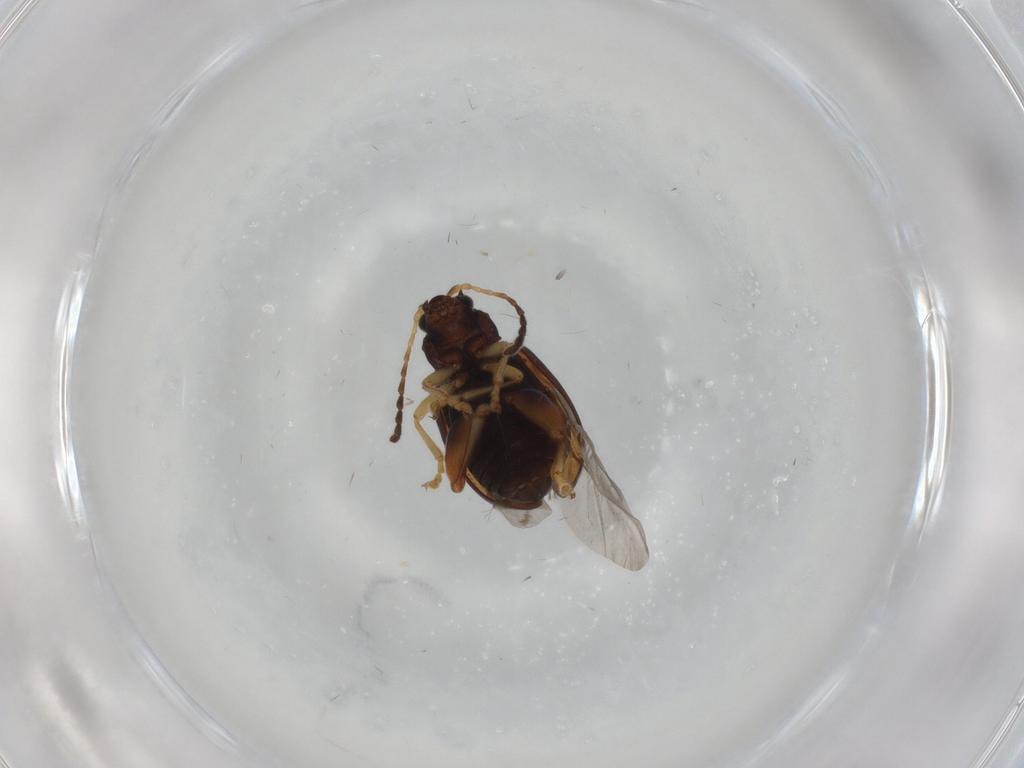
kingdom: Animalia
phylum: Arthropoda
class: Insecta
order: Coleoptera
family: Chrysomelidae
